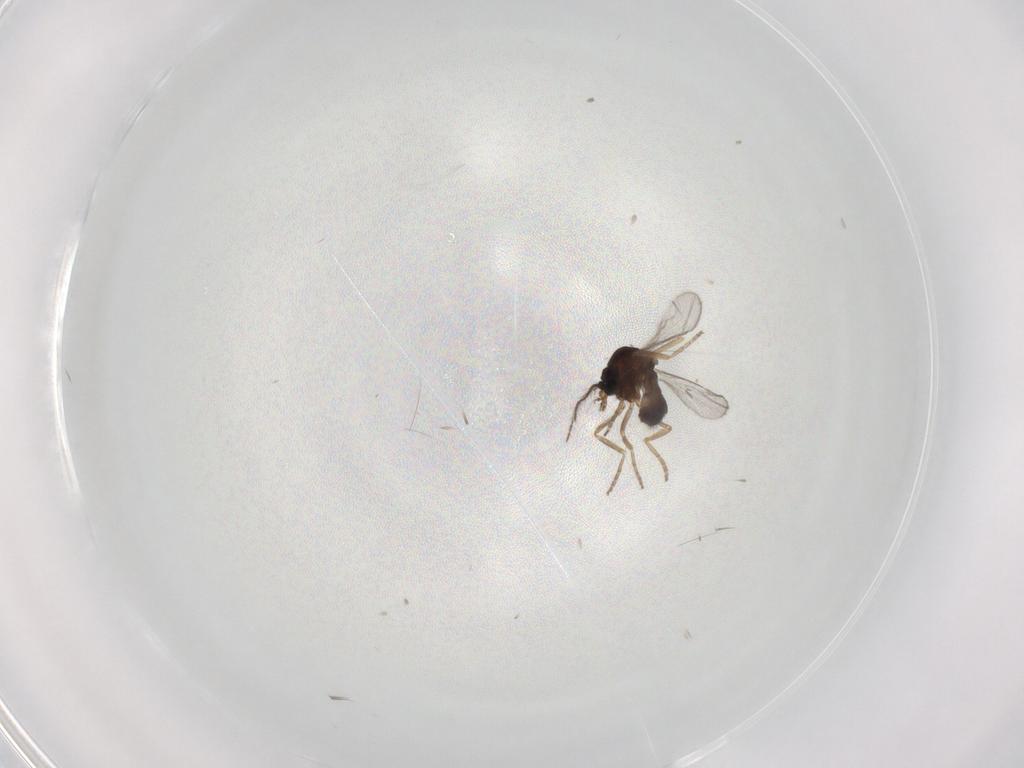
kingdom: Animalia
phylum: Arthropoda
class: Insecta
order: Diptera
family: Ceratopogonidae
